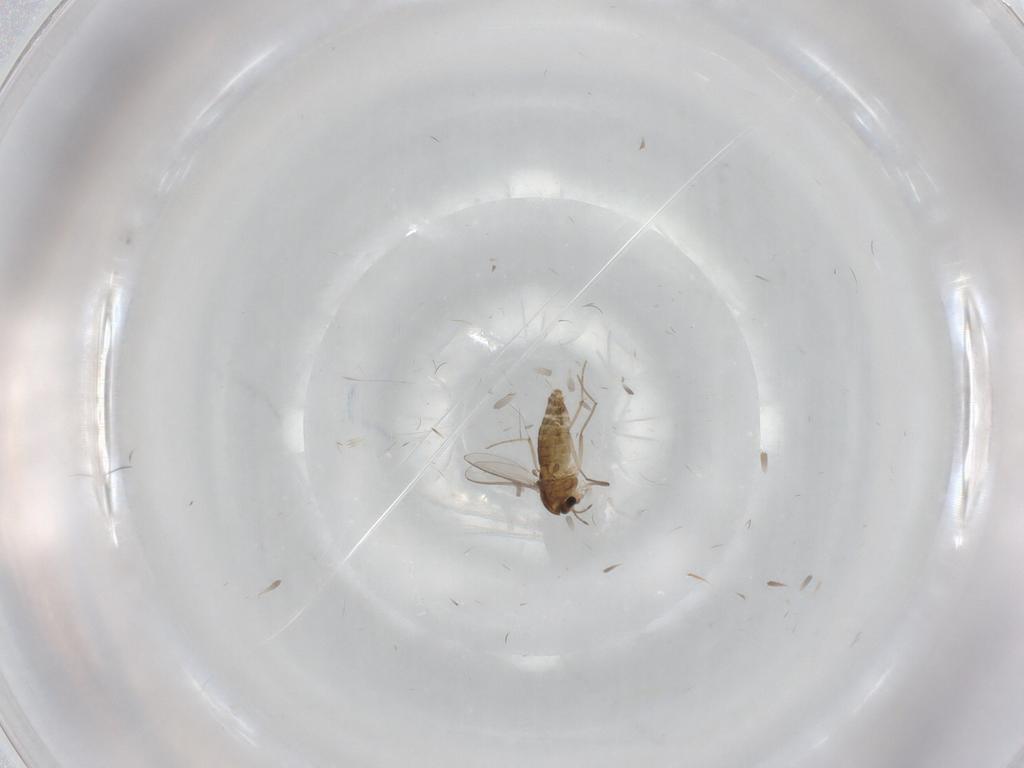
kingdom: Animalia
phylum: Arthropoda
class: Insecta
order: Diptera
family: Chironomidae
